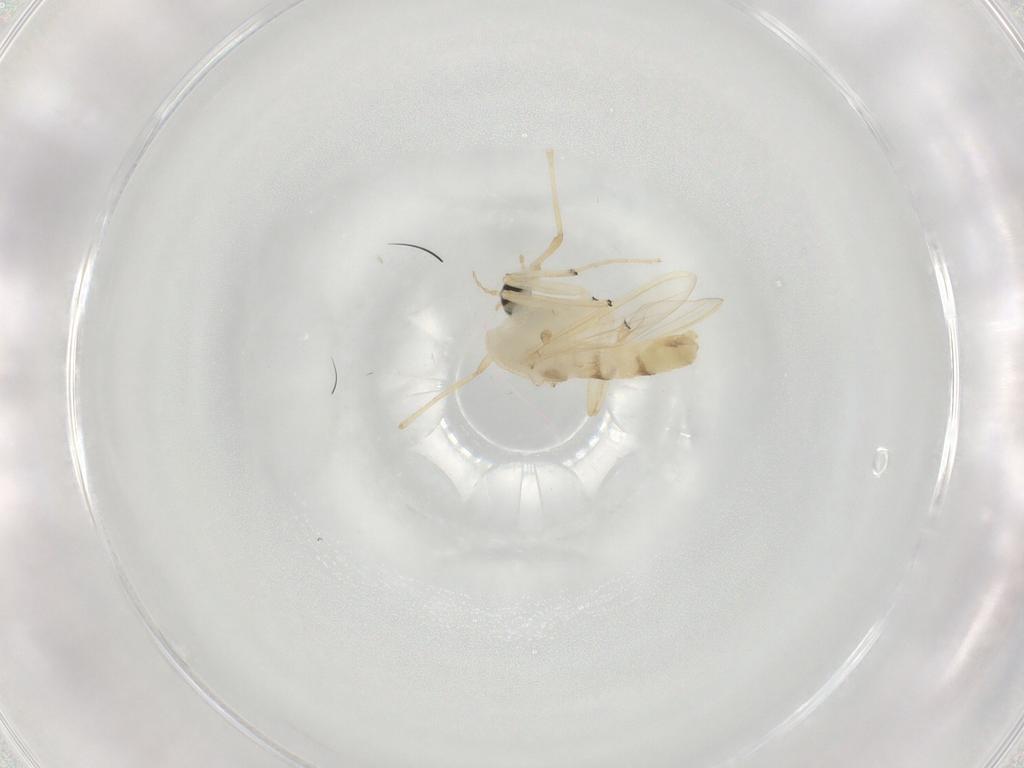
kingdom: Animalia
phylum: Arthropoda
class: Insecta
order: Diptera
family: Chironomidae
